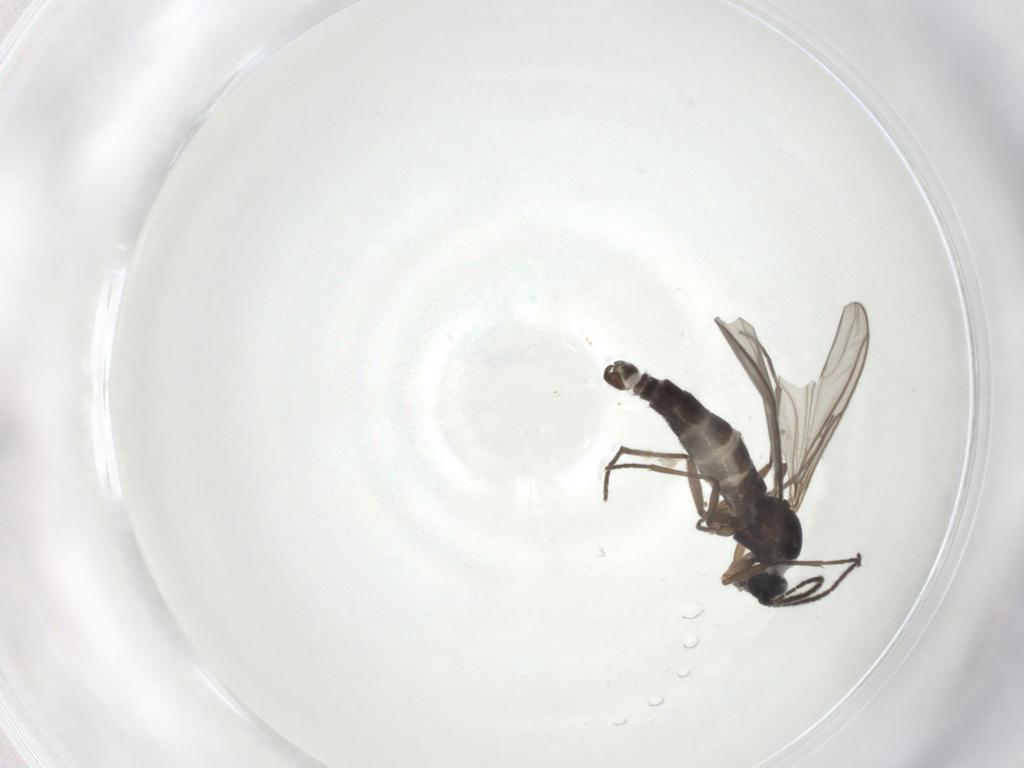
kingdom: Animalia
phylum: Arthropoda
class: Insecta
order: Diptera
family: Sciaridae
